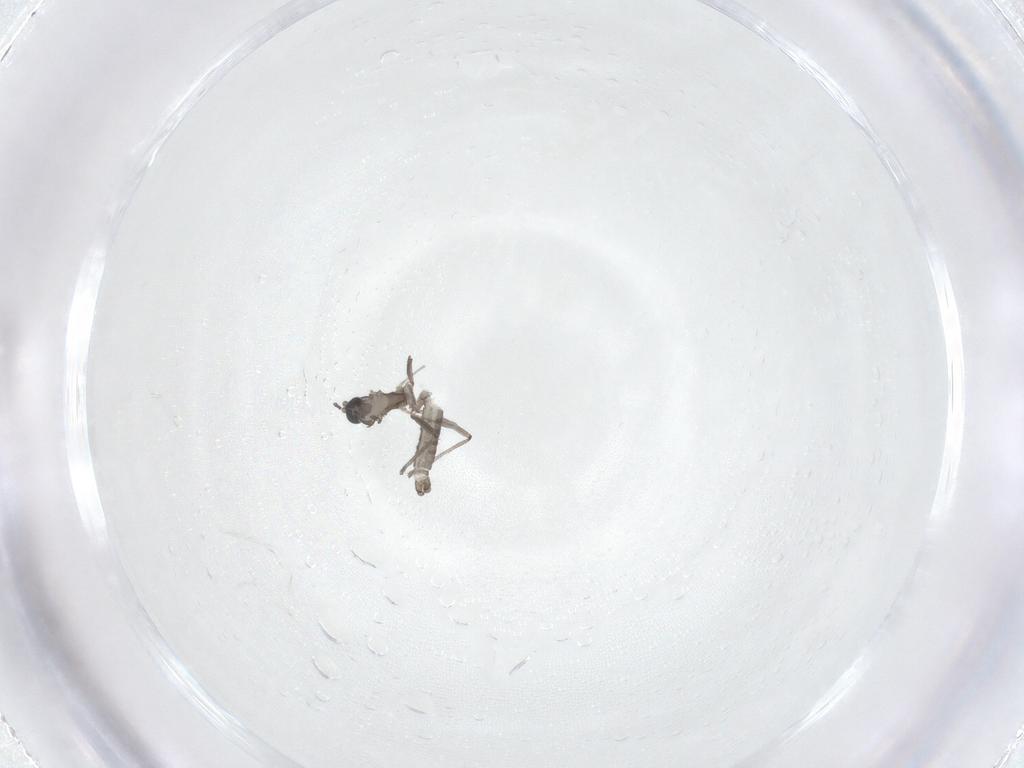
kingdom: Animalia
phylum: Arthropoda
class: Insecta
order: Diptera
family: Sciaridae
